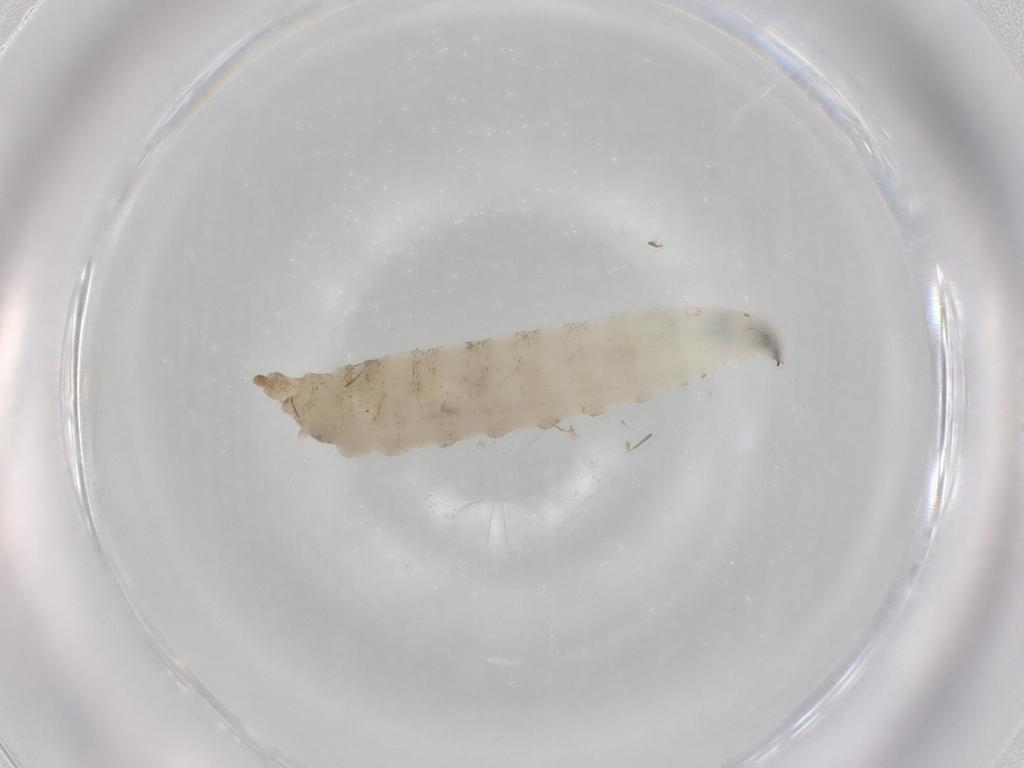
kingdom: Animalia
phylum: Arthropoda
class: Insecta
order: Diptera
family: Drosophilidae
